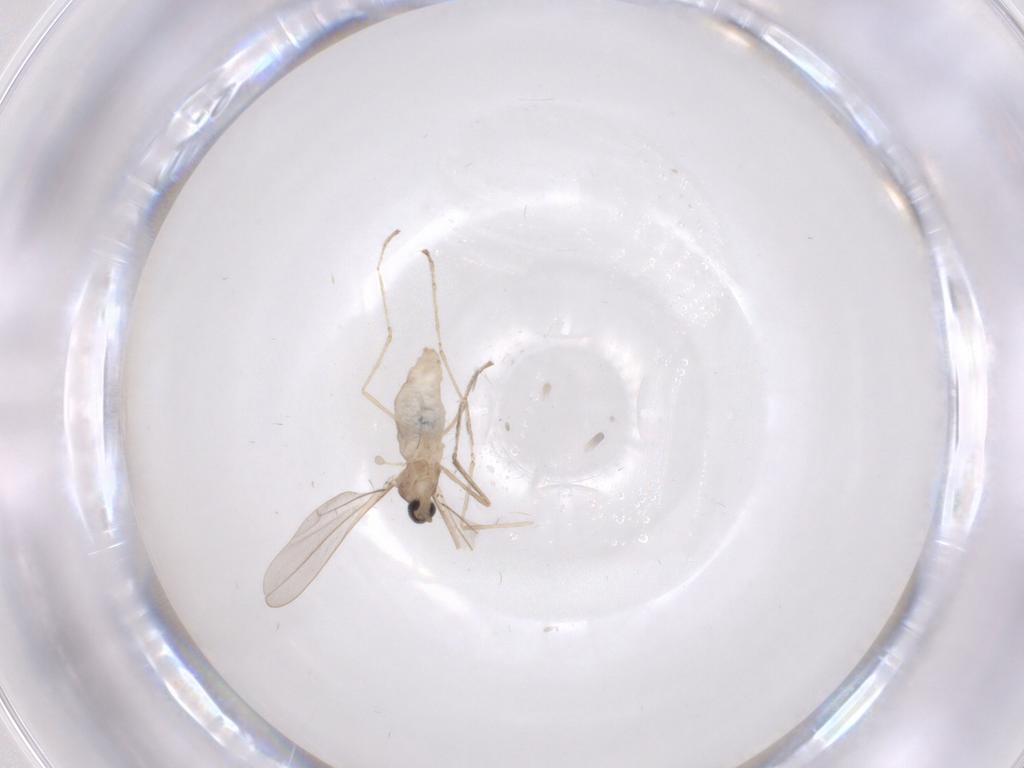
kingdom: Animalia
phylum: Arthropoda
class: Insecta
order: Diptera
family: Cecidomyiidae
